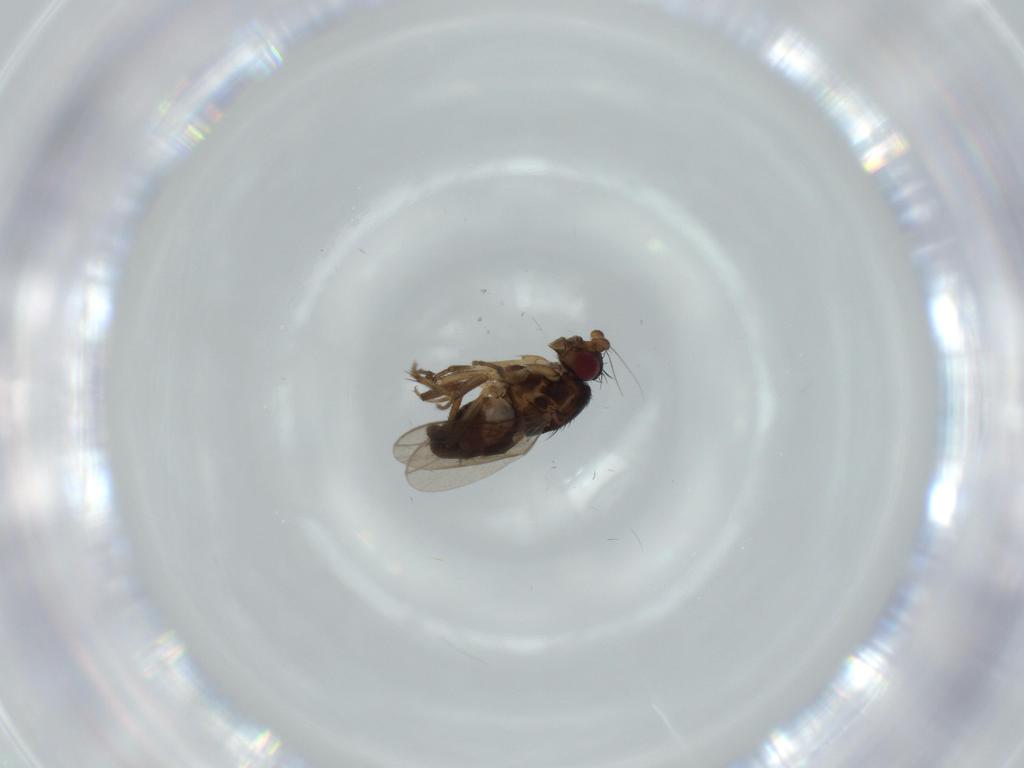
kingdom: Animalia
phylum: Arthropoda
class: Insecta
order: Diptera
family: Sphaeroceridae
